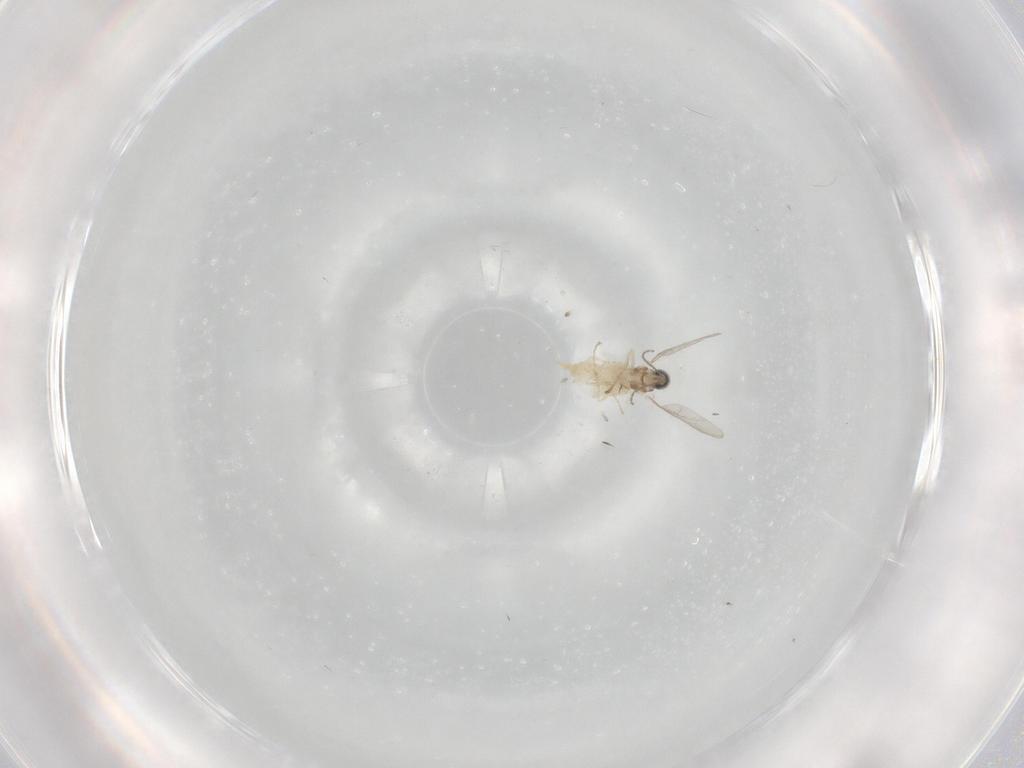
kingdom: Animalia
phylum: Arthropoda
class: Insecta
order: Diptera
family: Cecidomyiidae
